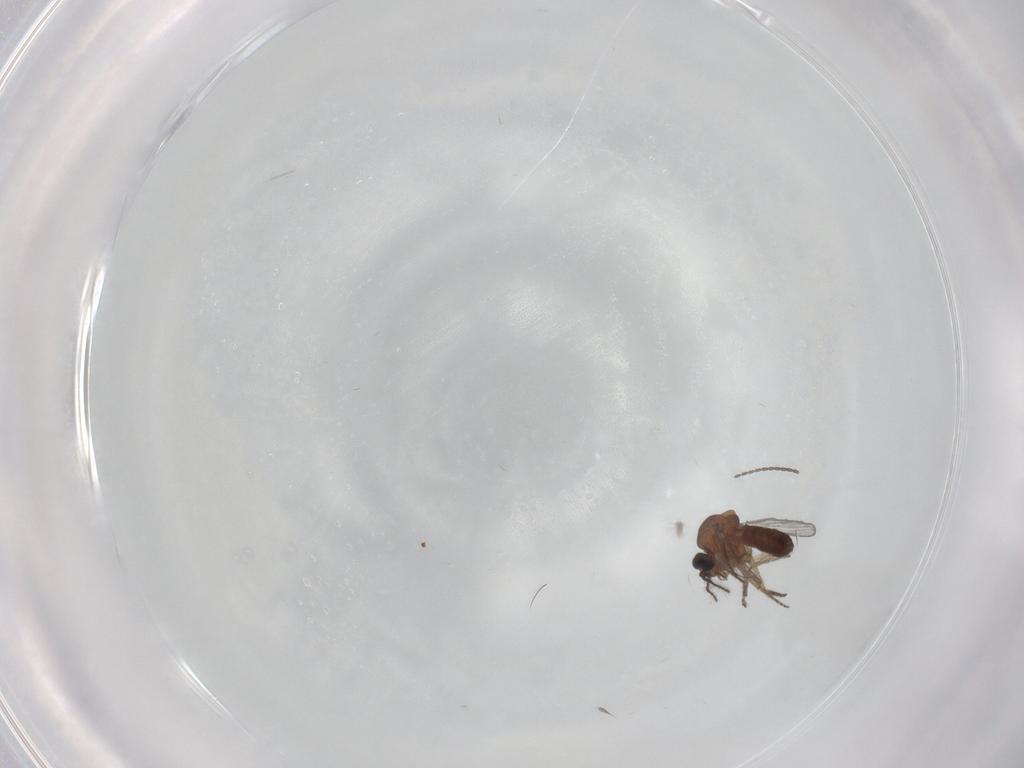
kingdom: Animalia
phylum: Arthropoda
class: Insecta
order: Diptera
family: Ceratopogonidae
